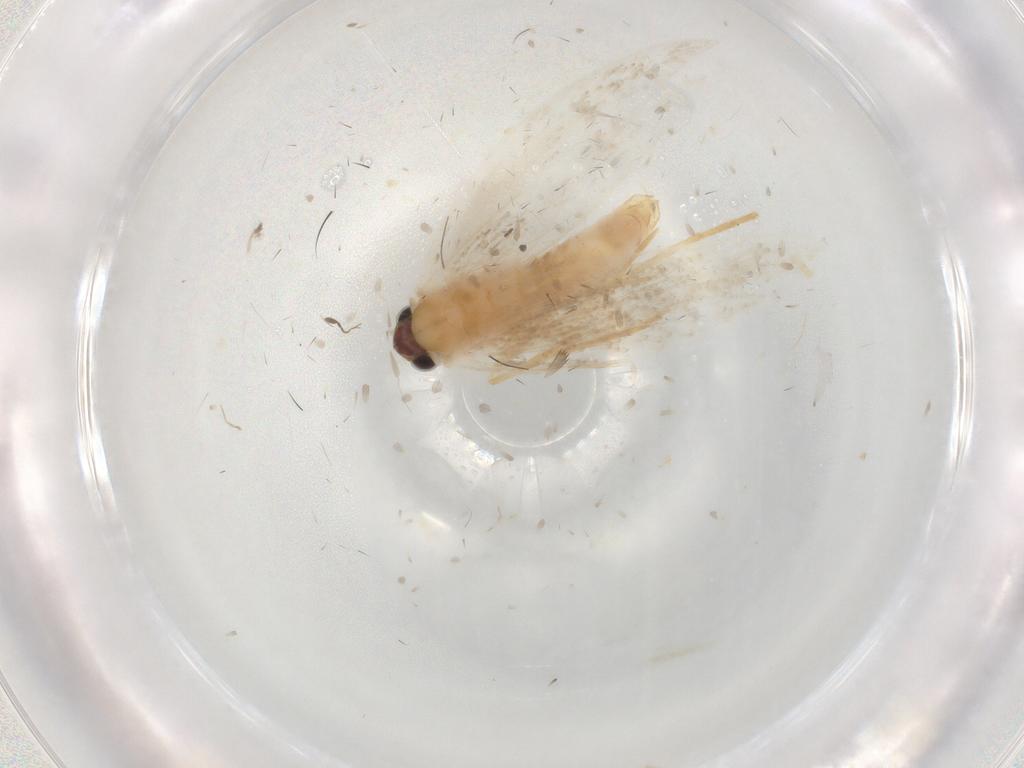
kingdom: Animalia
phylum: Arthropoda
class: Insecta
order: Lepidoptera
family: Tineidae
